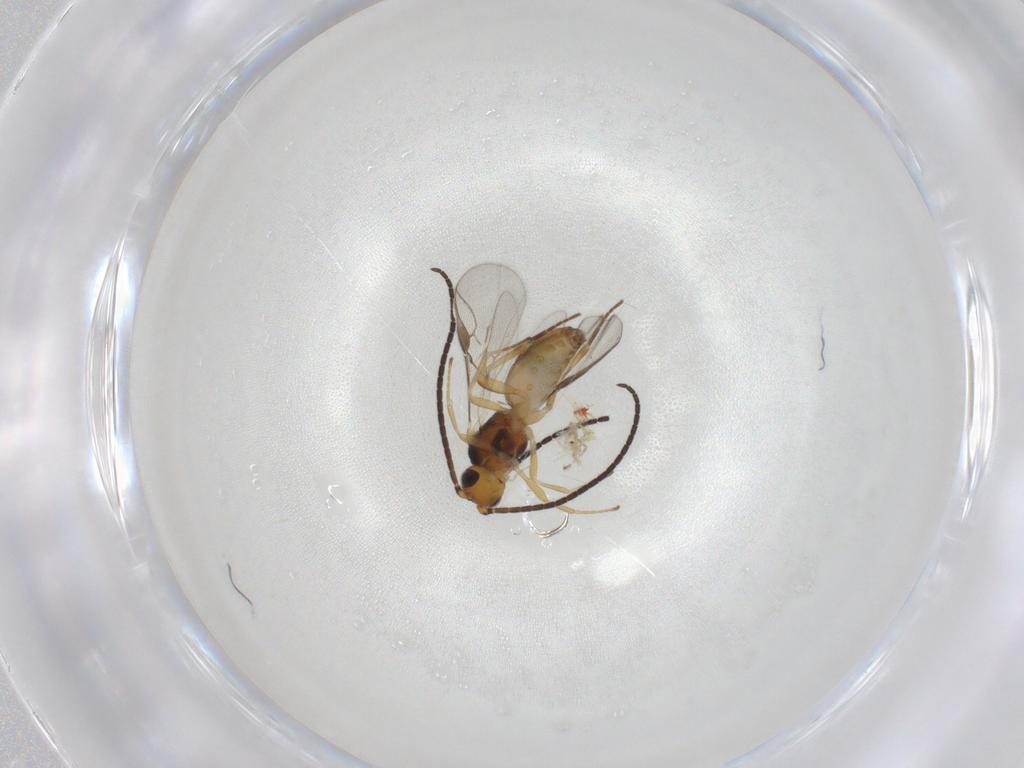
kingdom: Animalia
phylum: Arthropoda
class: Insecta
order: Hymenoptera
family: Braconidae
